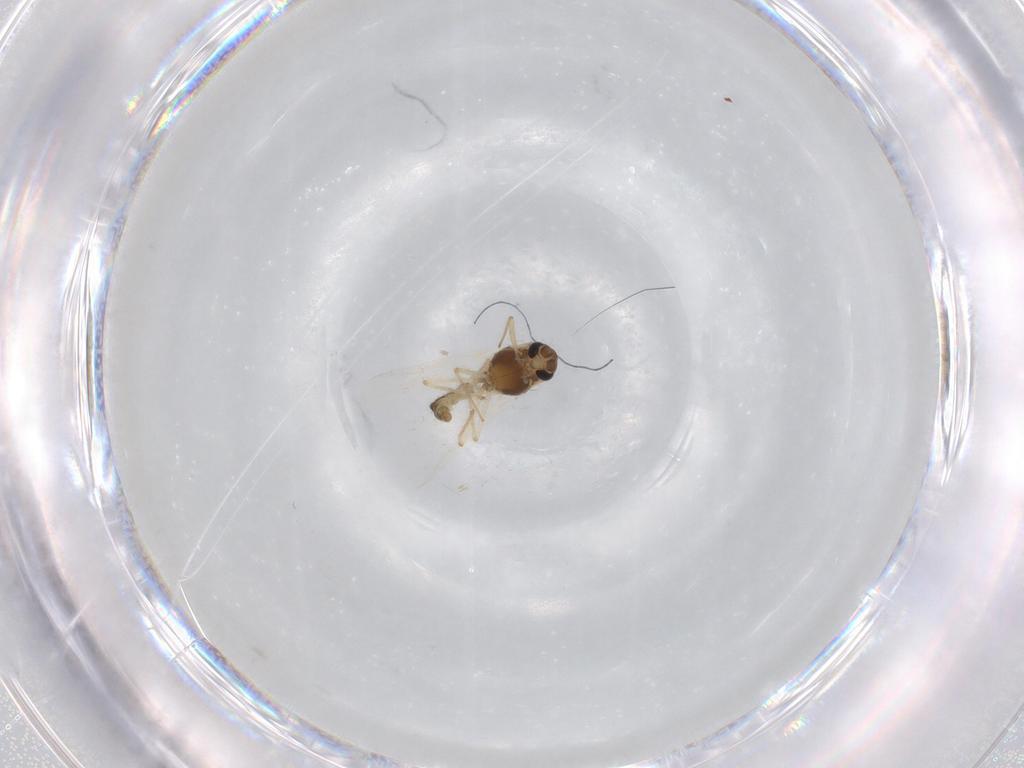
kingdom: Animalia
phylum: Arthropoda
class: Insecta
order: Diptera
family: Chironomidae
